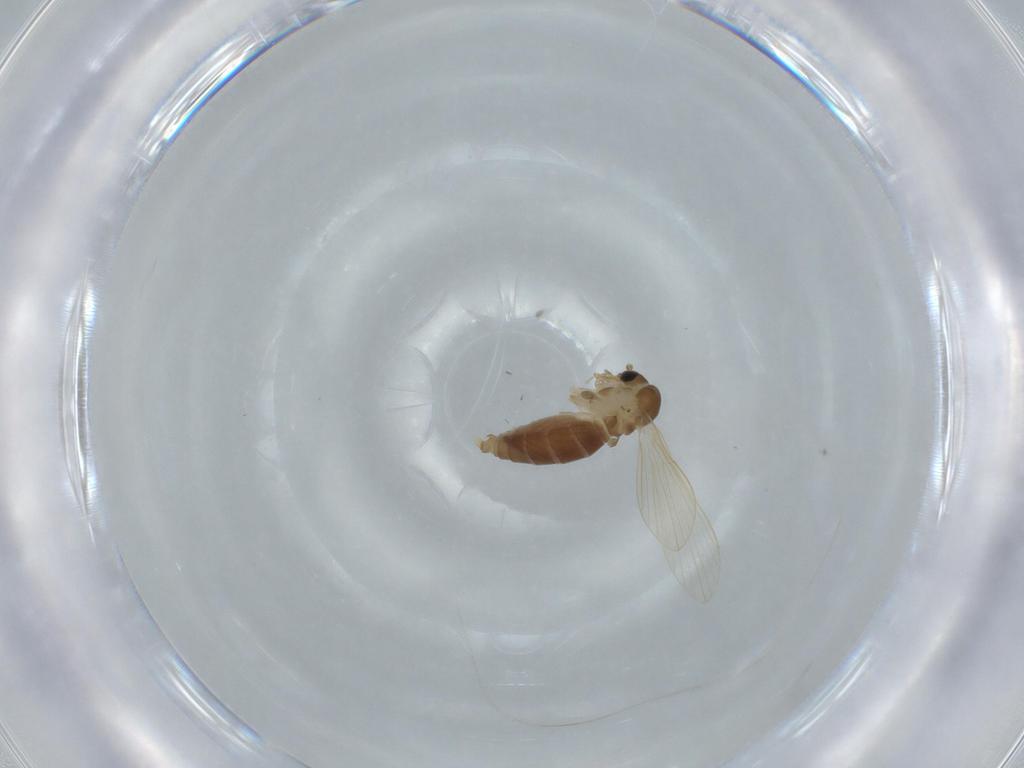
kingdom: Animalia
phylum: Arthropoda
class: Insecta
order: Diptera
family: Psychodidae
